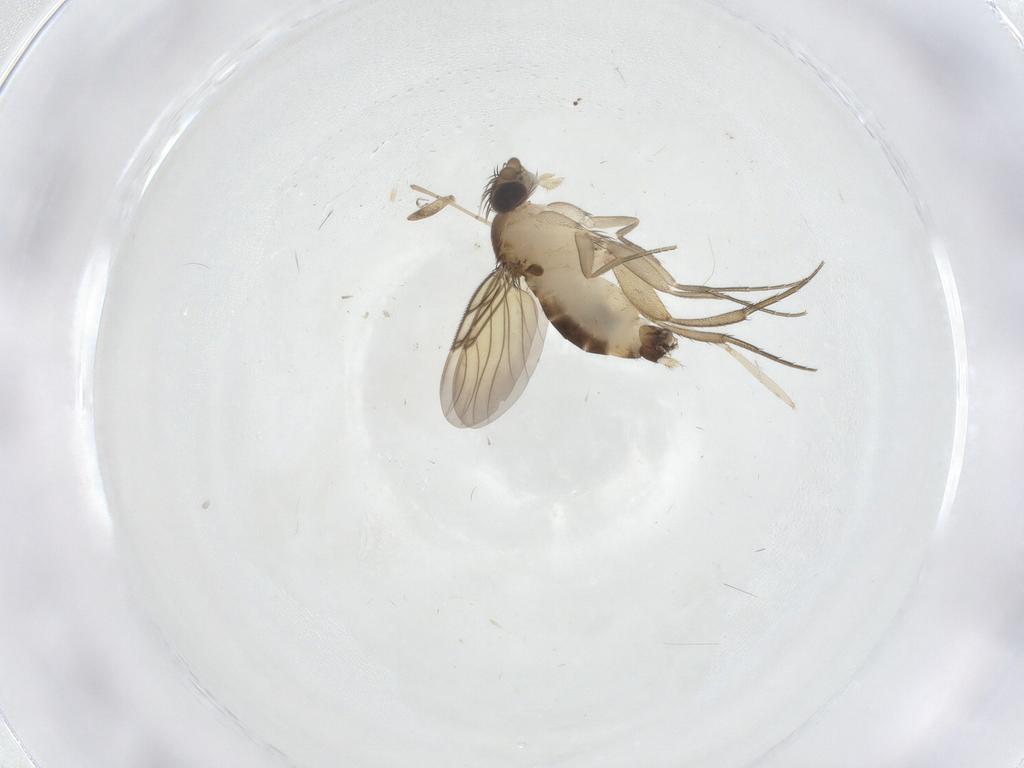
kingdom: Animalia
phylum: Arthropoda
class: Insecta
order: Diptera
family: Cecidomyiidae
